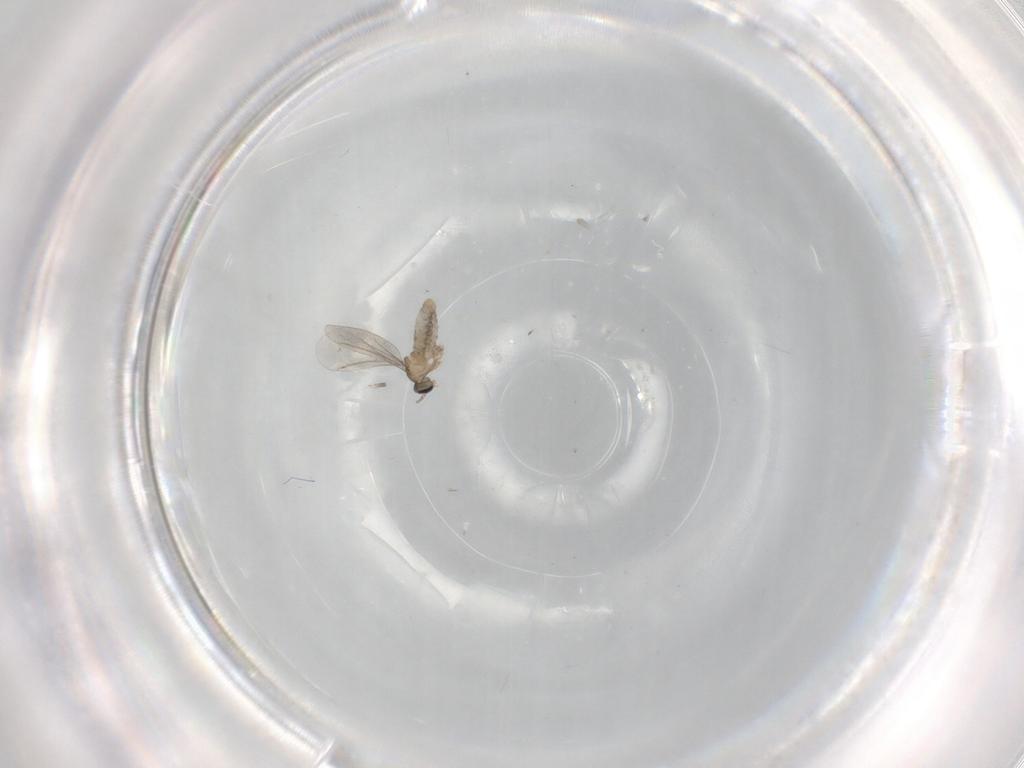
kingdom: Animalia
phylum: Arthropoda
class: Insecta
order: Diptera
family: Cecidomyiidae
